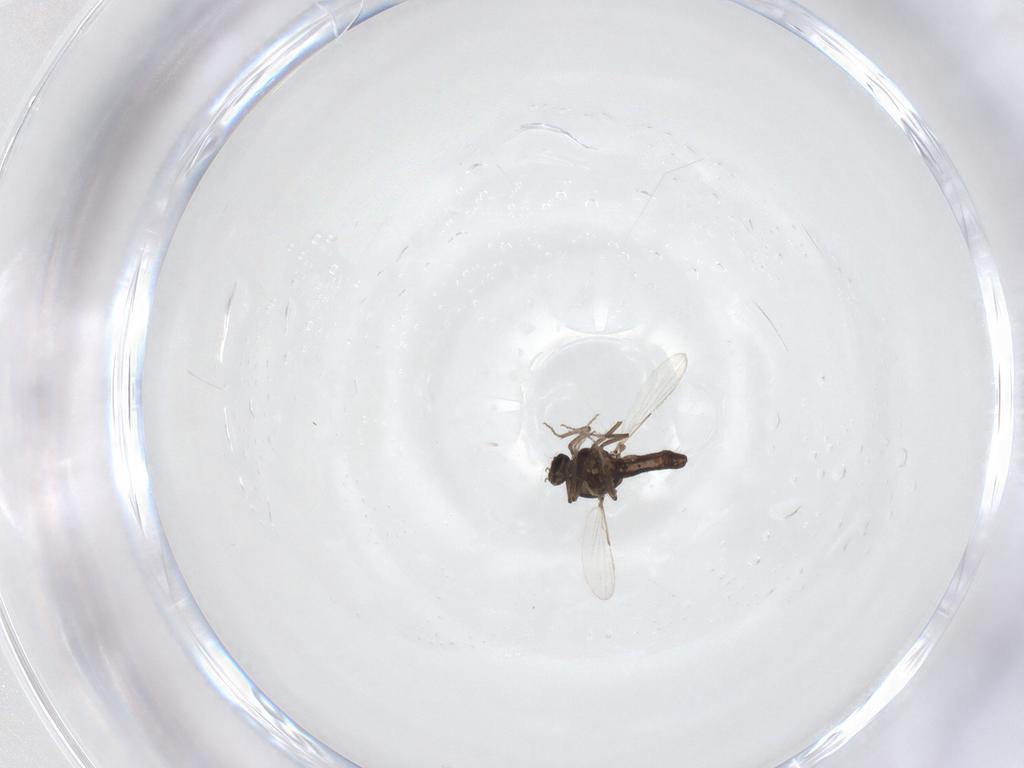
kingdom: Animalia
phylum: Arthropoda
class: Insecta
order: Diptera
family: Ceratopogonidae
